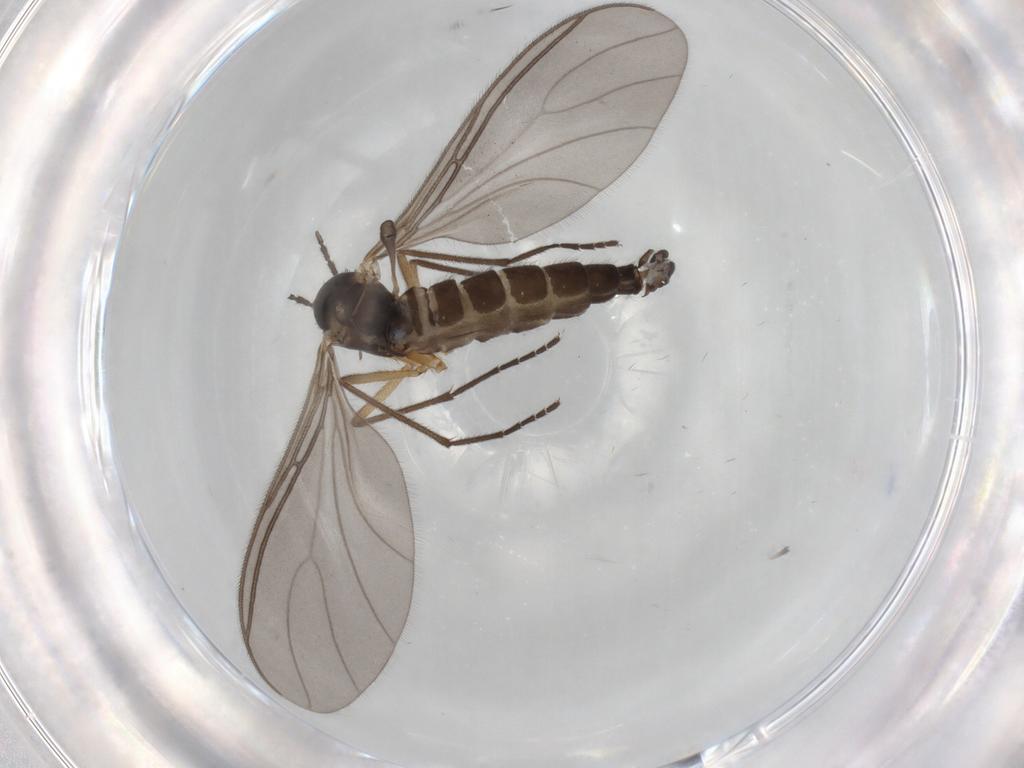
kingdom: Animalia
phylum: Arthropoda
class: Insecta
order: Diptera
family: Sciaridae
